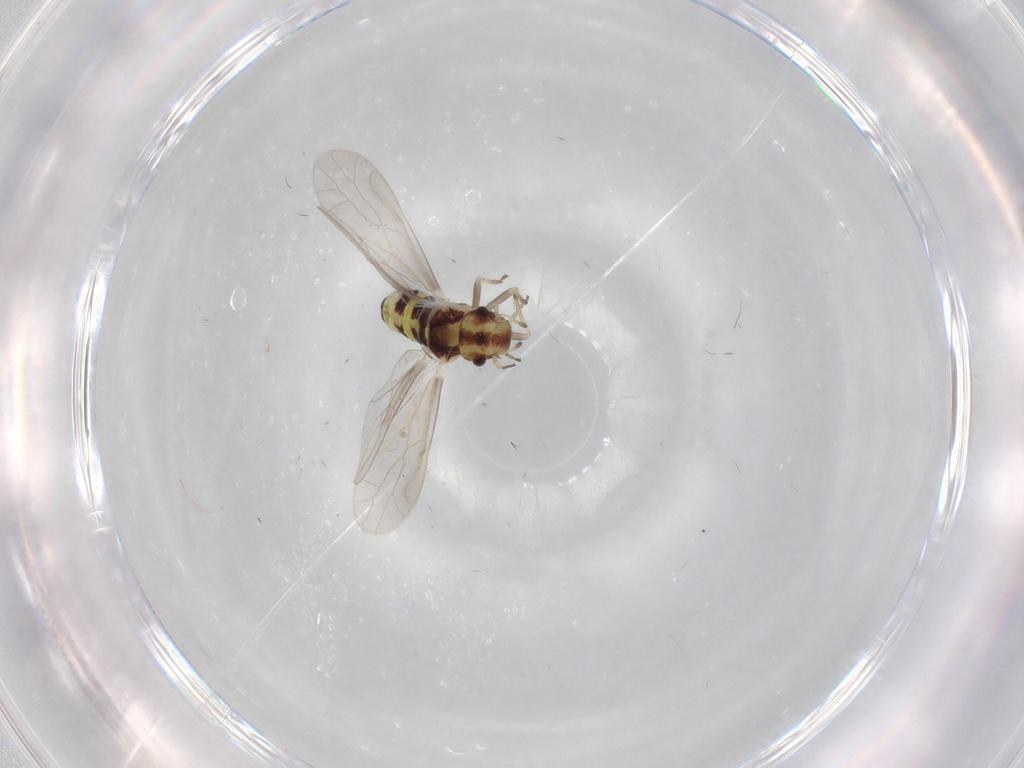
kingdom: Animalia
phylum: Arthropoda
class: Insecta
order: Psocodea
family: Ectopsocidae
